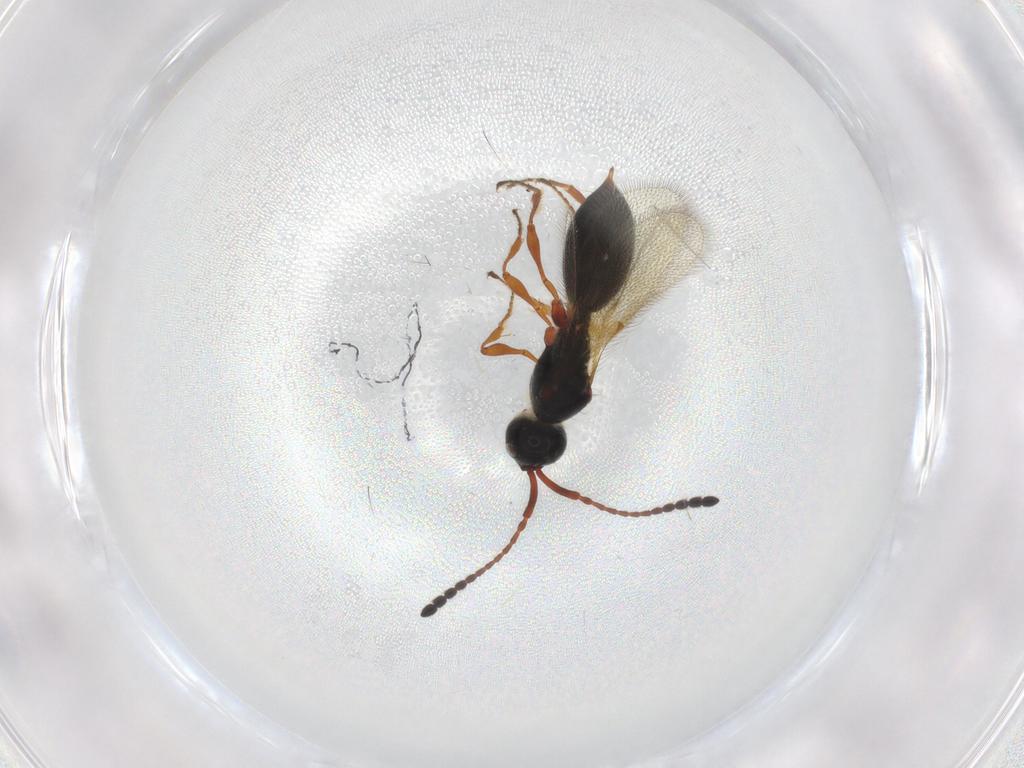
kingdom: Animalia
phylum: Arthropoda
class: Insecta
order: Hymenoptera
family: Diapriidae
